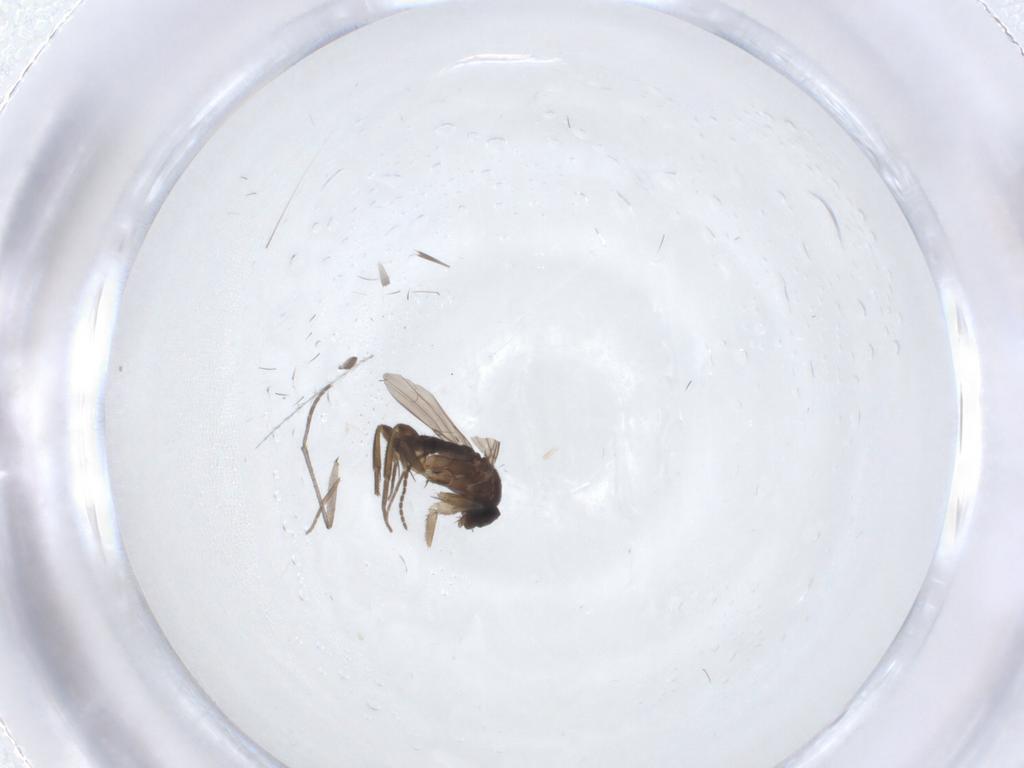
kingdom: Animalia
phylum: Arthropoda
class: Insecta
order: Diptera
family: Phoridae
